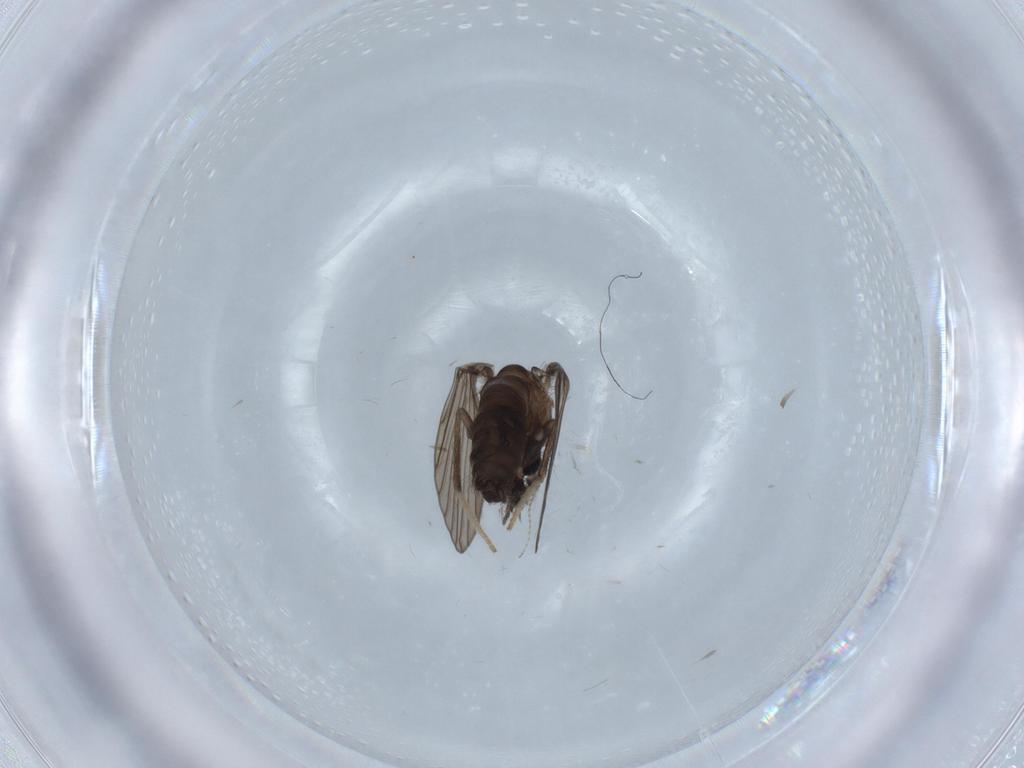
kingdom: Animalia
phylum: Arthropoda
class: Insecta
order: Diptera
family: Psychodidae
